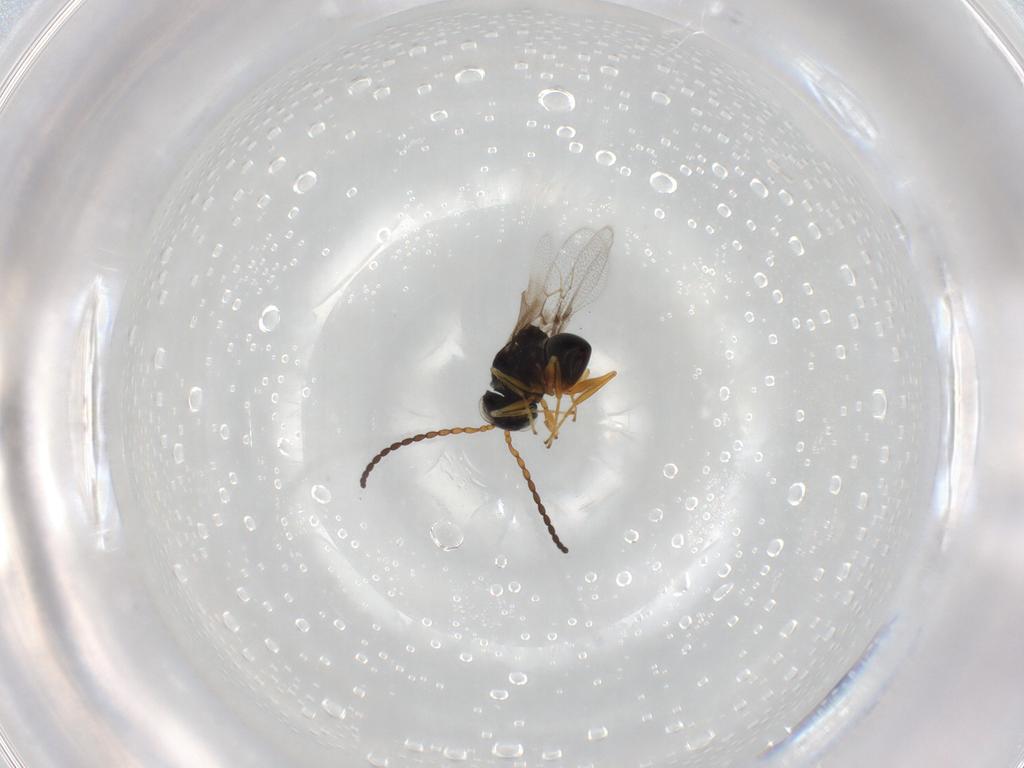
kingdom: Animalia
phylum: Arthropoda
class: Insecta
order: Hymenoptera
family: Figitidae
